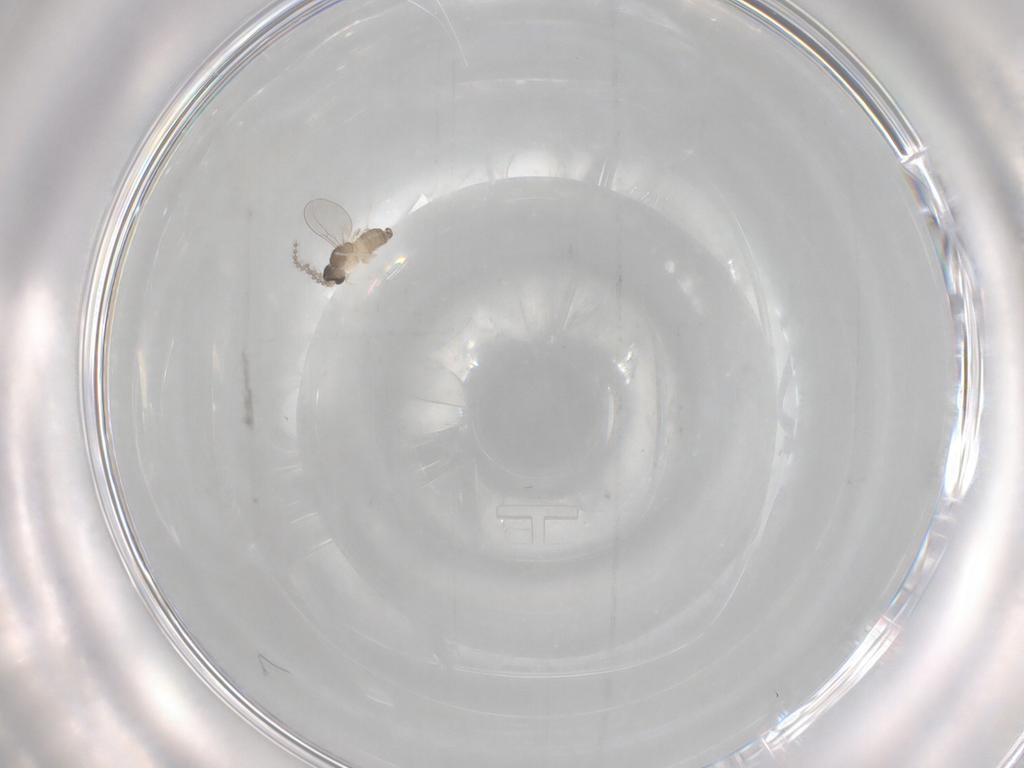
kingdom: Animalia
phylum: Arthropoda
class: Insecta
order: Diptera
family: Cecidomyiidae
